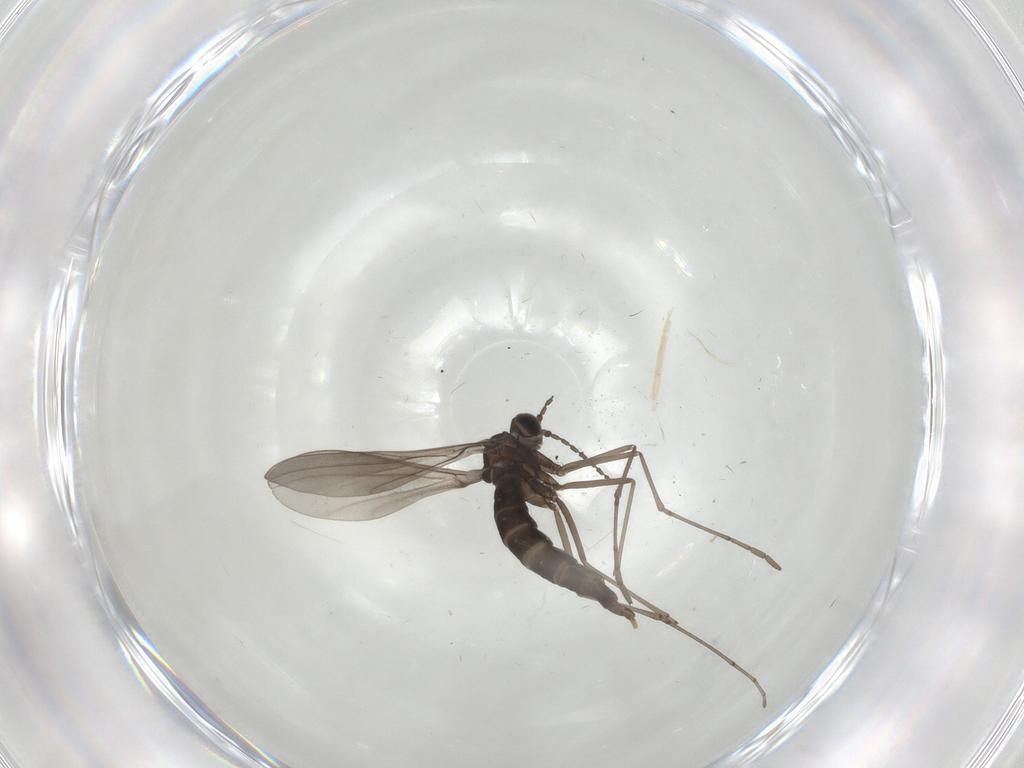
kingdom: Animalia
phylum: Arthropoda
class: Insecta
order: Diptera
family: Cecidomyiidae
